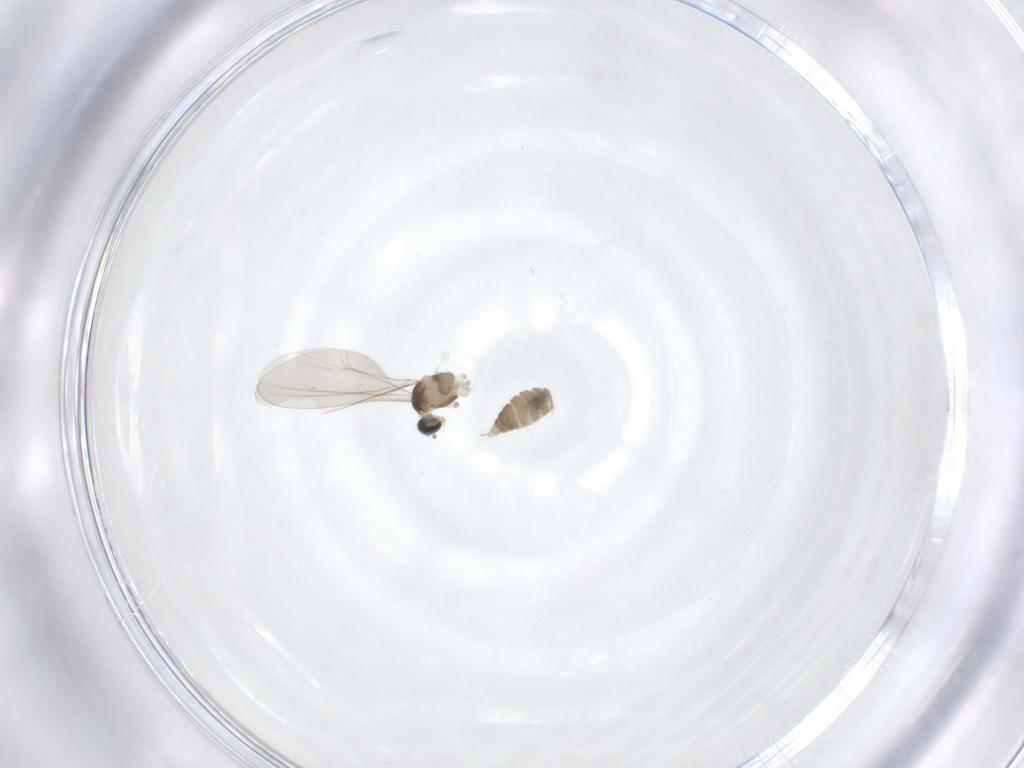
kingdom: Animalia
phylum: Arthropoda
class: Insecta
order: Diptera
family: Cecidomyiidae
